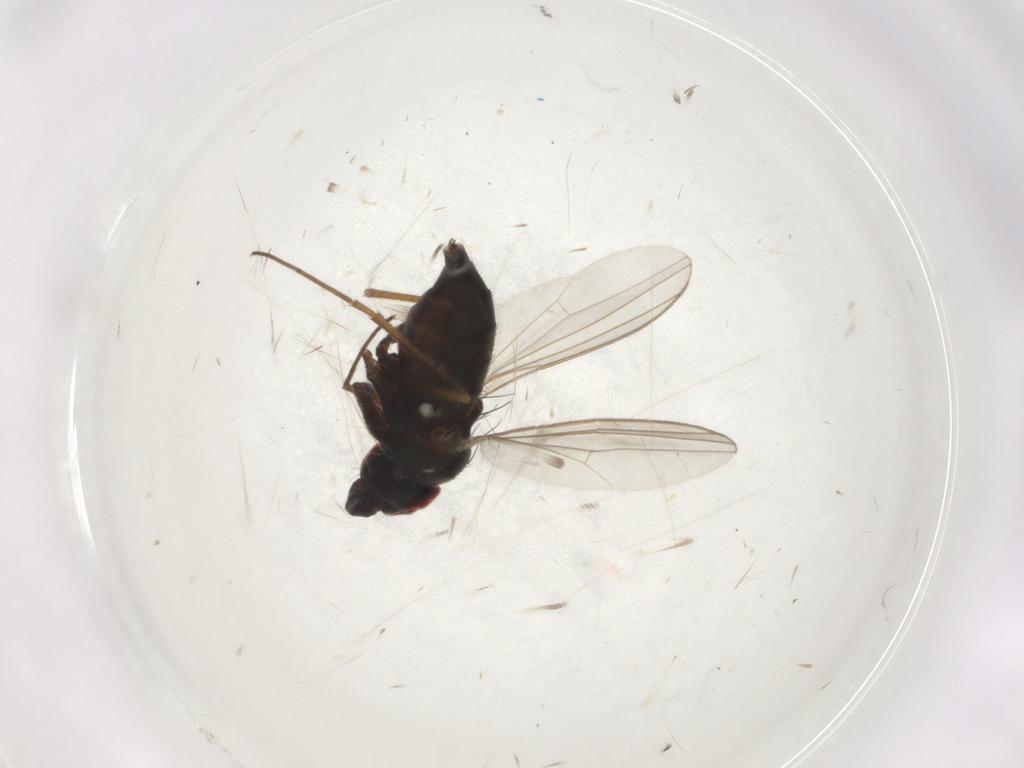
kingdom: Animalia
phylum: Arthropoda
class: Insecta
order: Diptera
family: Dolichopodidae
